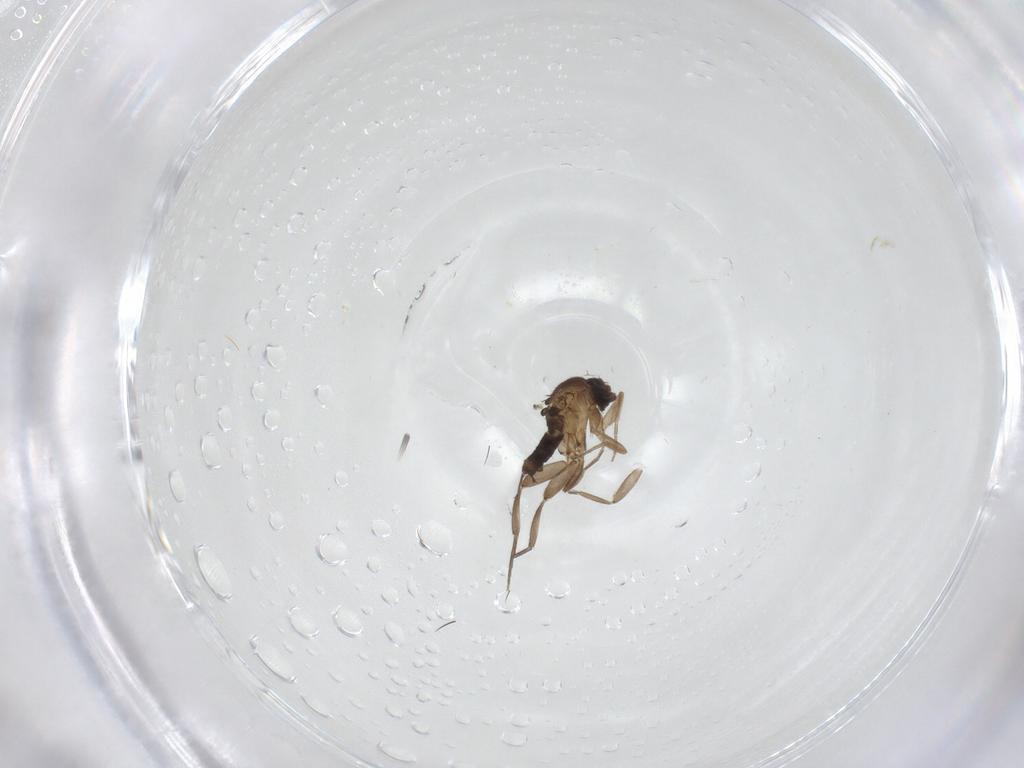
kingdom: Animalia
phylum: Arthropoda
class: Insecta
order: Diptera
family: Phoridae
